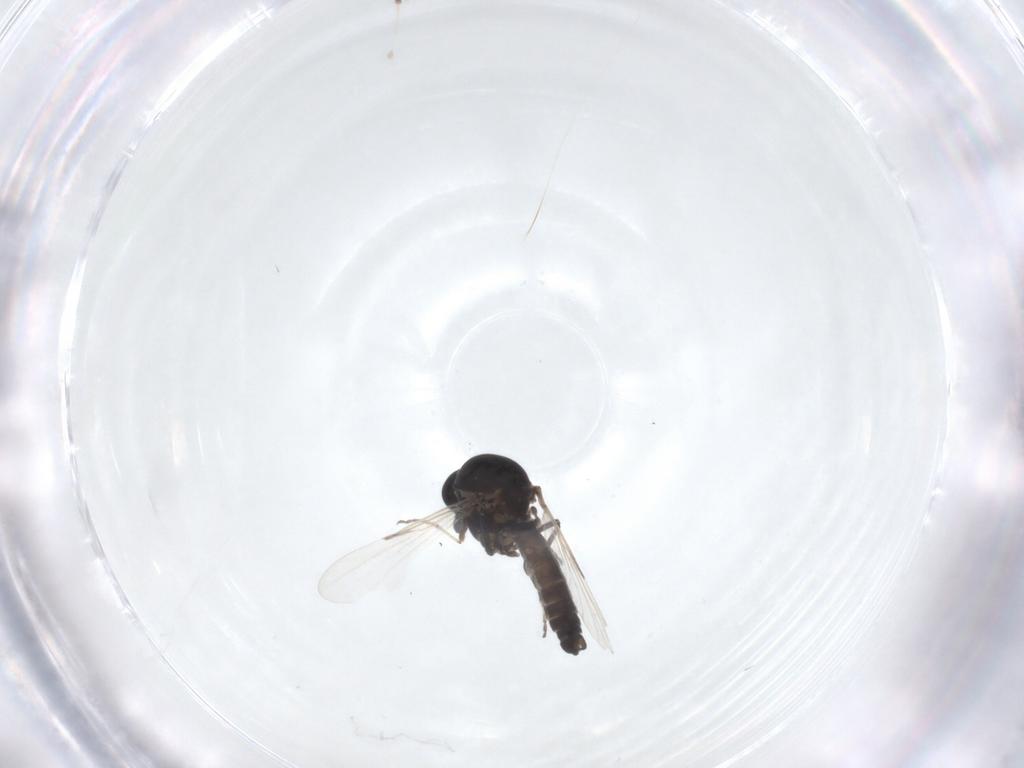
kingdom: Animalia
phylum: Arthropoda
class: Insecta
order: Diptera
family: Ceratopogonidae
